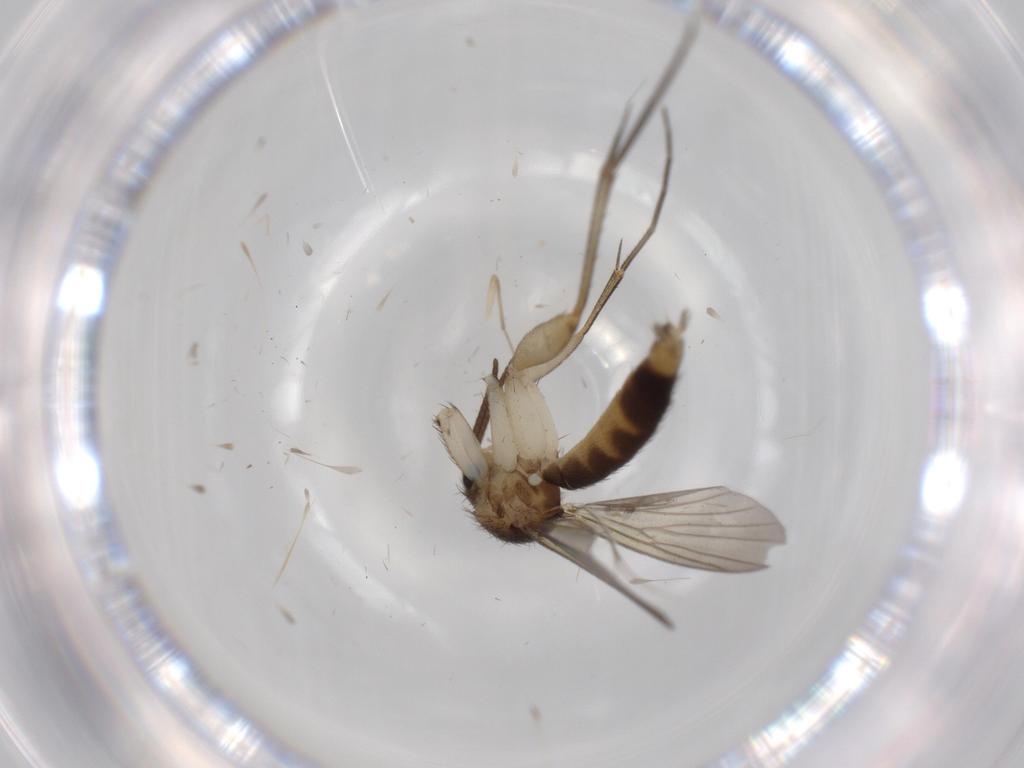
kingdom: Animalia
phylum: Arthropoda
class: Insecta
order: Diptera
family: Mycetophilidae
